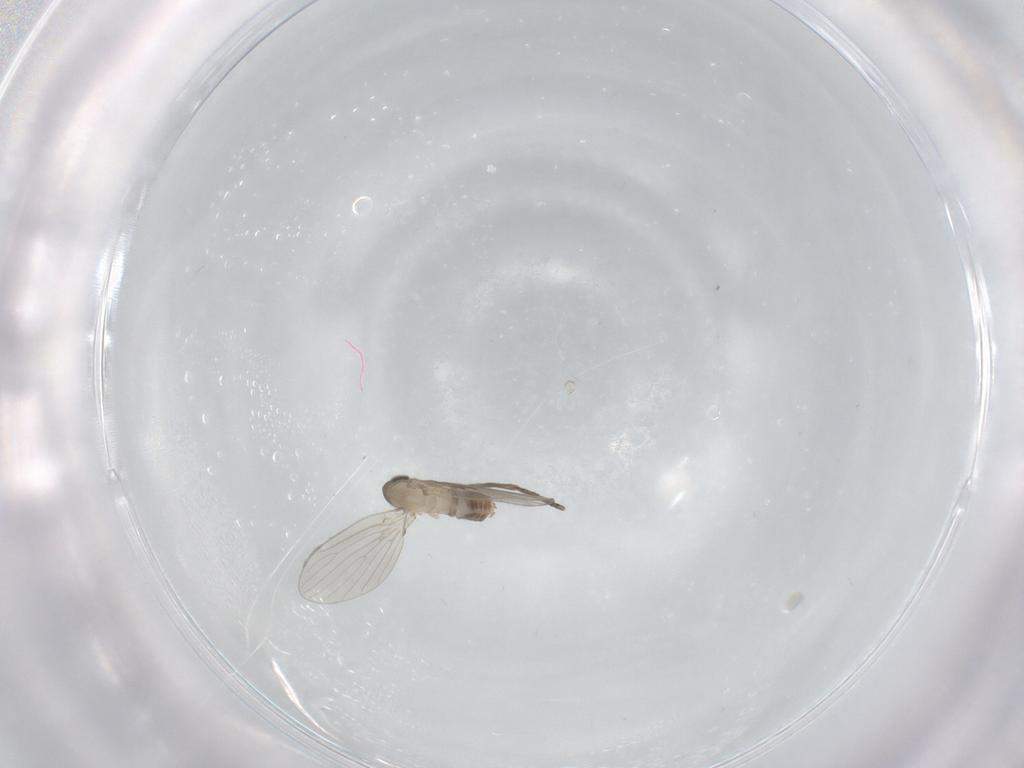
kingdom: Animalia
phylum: Arthropoda
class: Insecta
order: Diptera
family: Psychodidae
